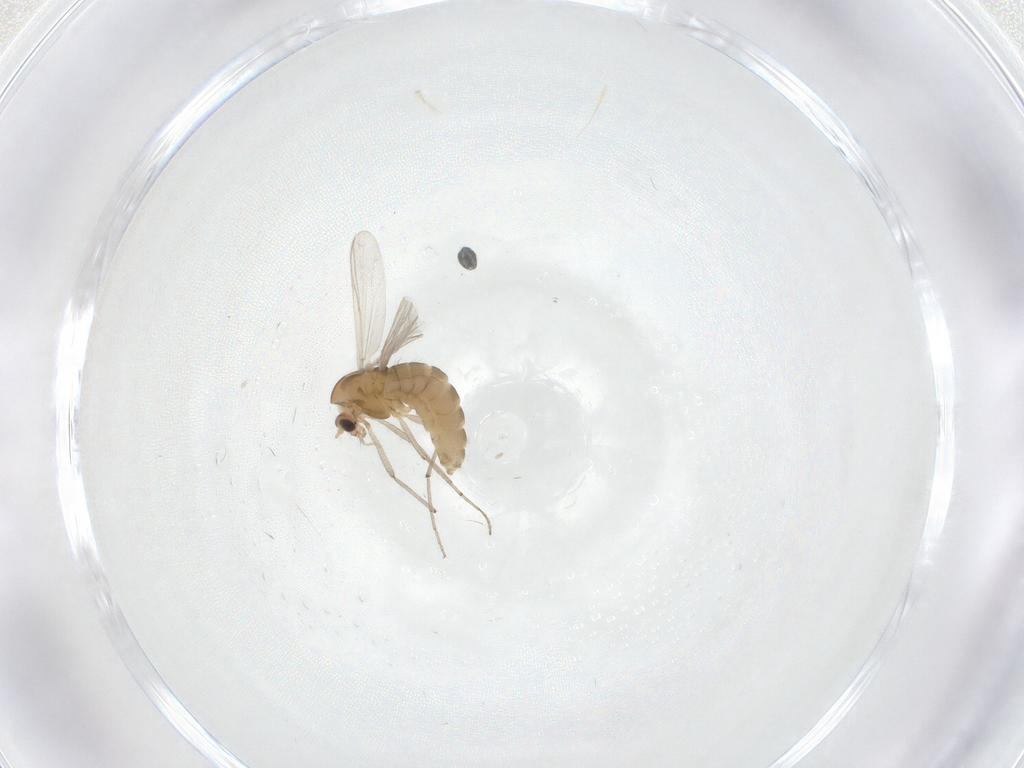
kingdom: Animalia
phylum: Arthropoda
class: Insecta
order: Diptera
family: Chironomidae
